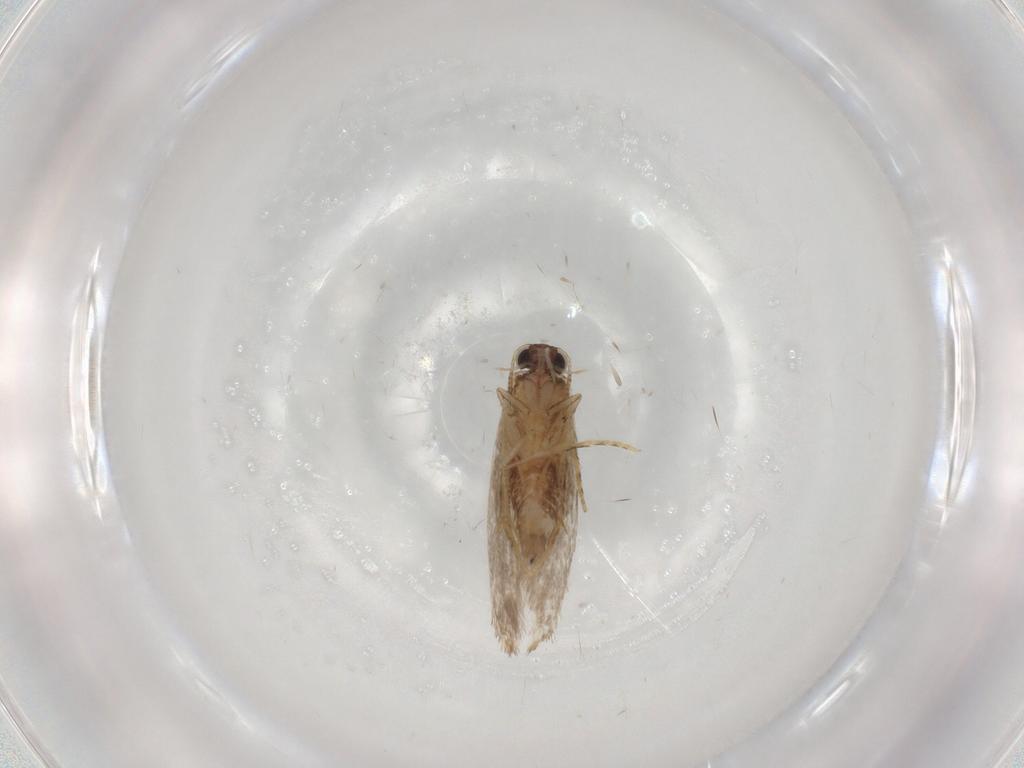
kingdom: Animalia
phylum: Arthropoda
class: Insecta
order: Lepidoptera
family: Tineidae
